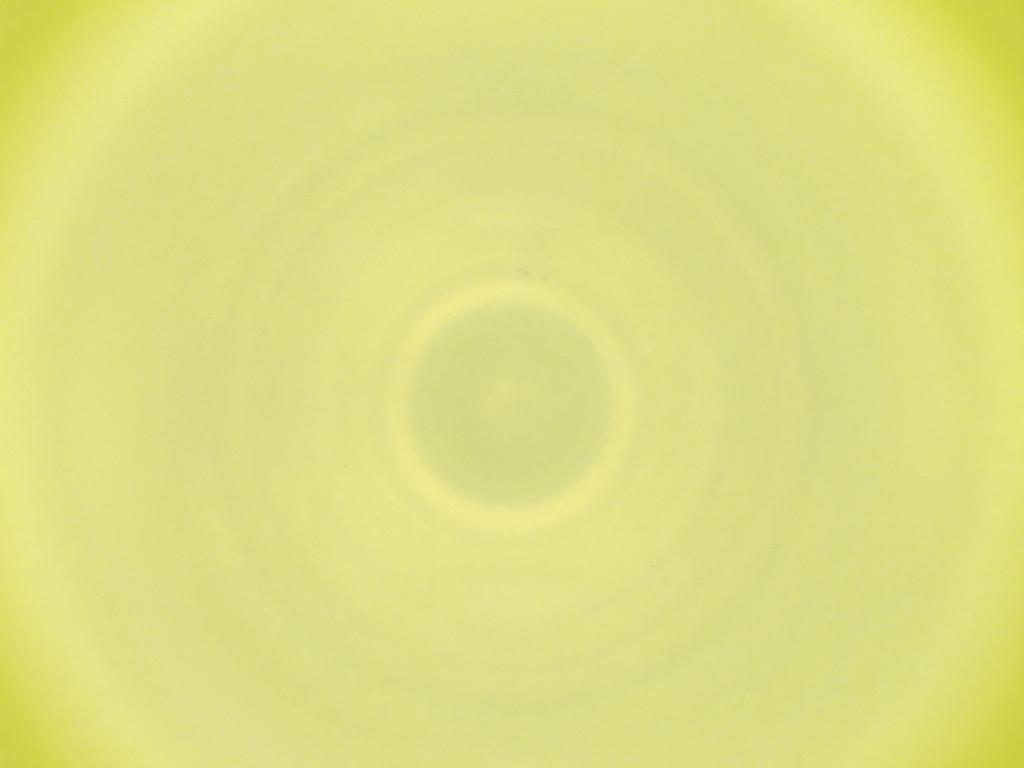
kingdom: Animalia
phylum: Arthropoda
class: Insecta
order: Diptera
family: Cecidomyiidae
